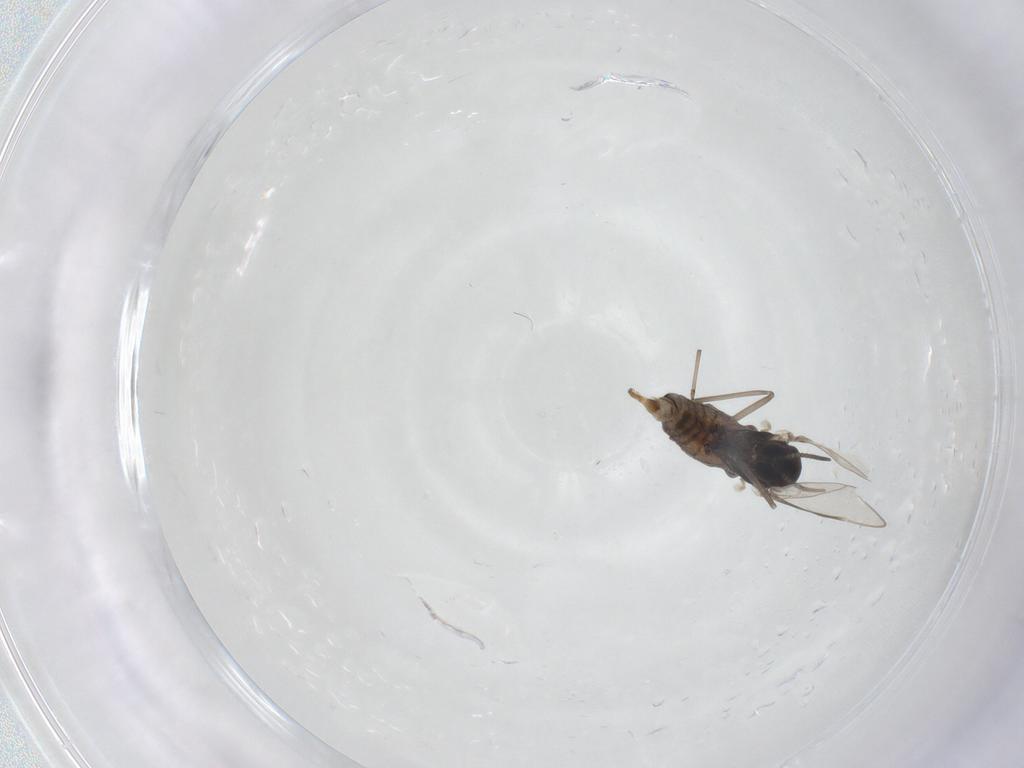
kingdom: Animalia
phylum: Arthropoda
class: Insecta
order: Diptera
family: Cecidomyiidae
